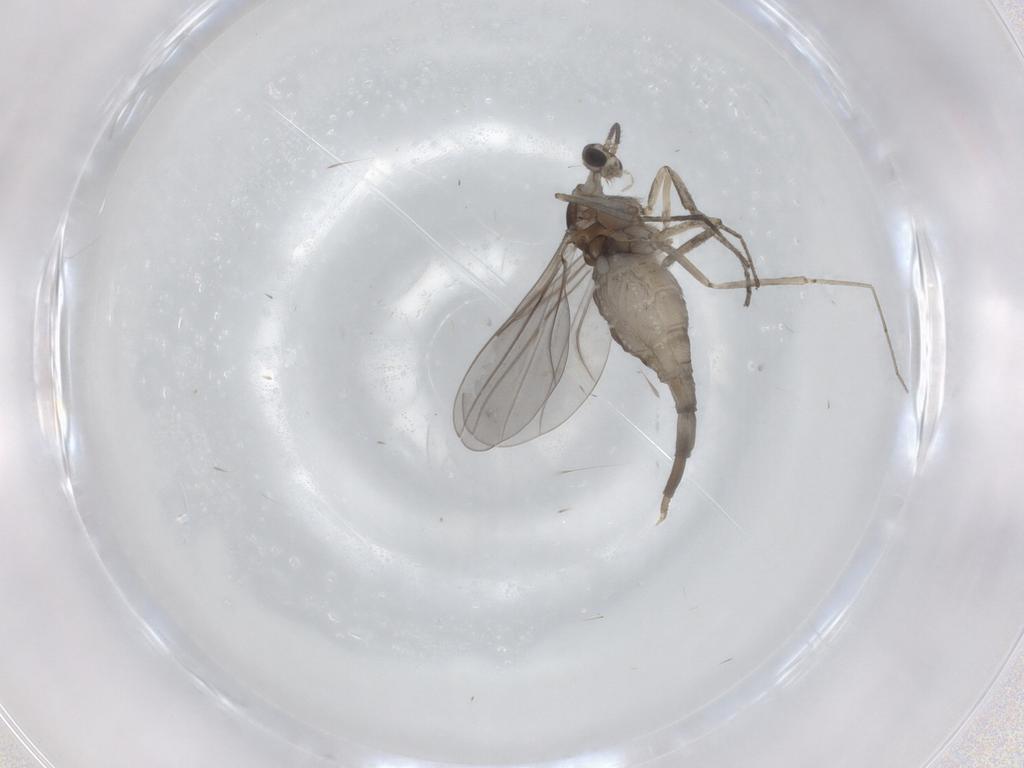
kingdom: Animalia
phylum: Arthropoda
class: Insecta
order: Diptera
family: Cecidomyiidae
